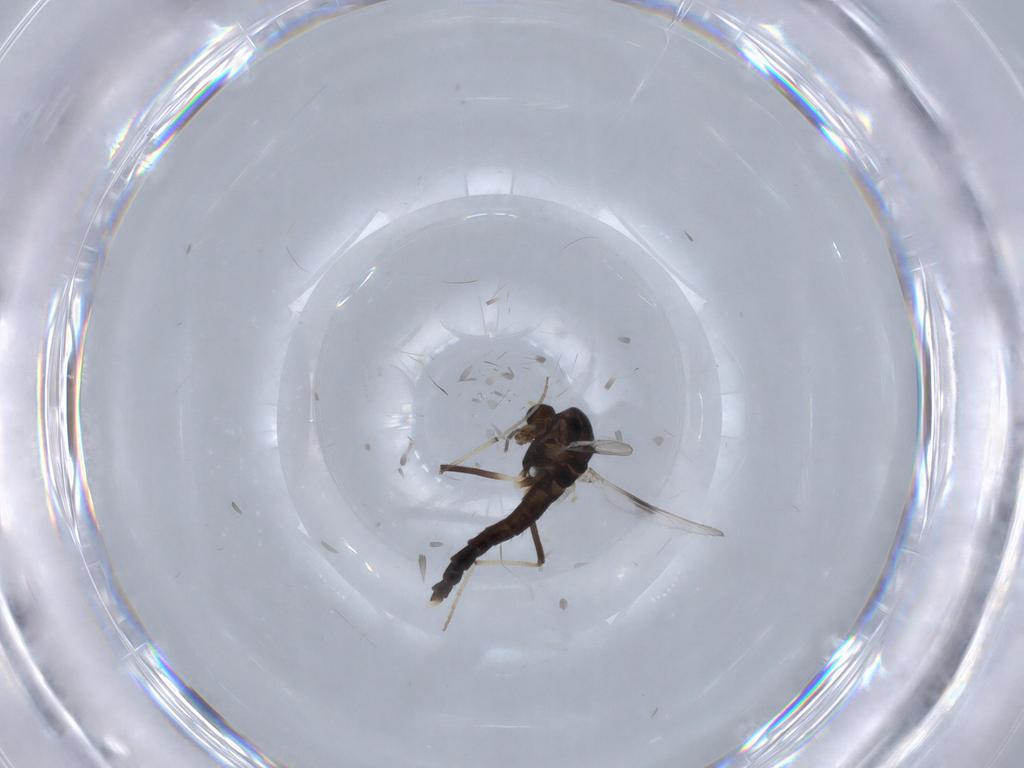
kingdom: Animalia
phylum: Arthropoda
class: Insecta
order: Diptera
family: Chironomidae
